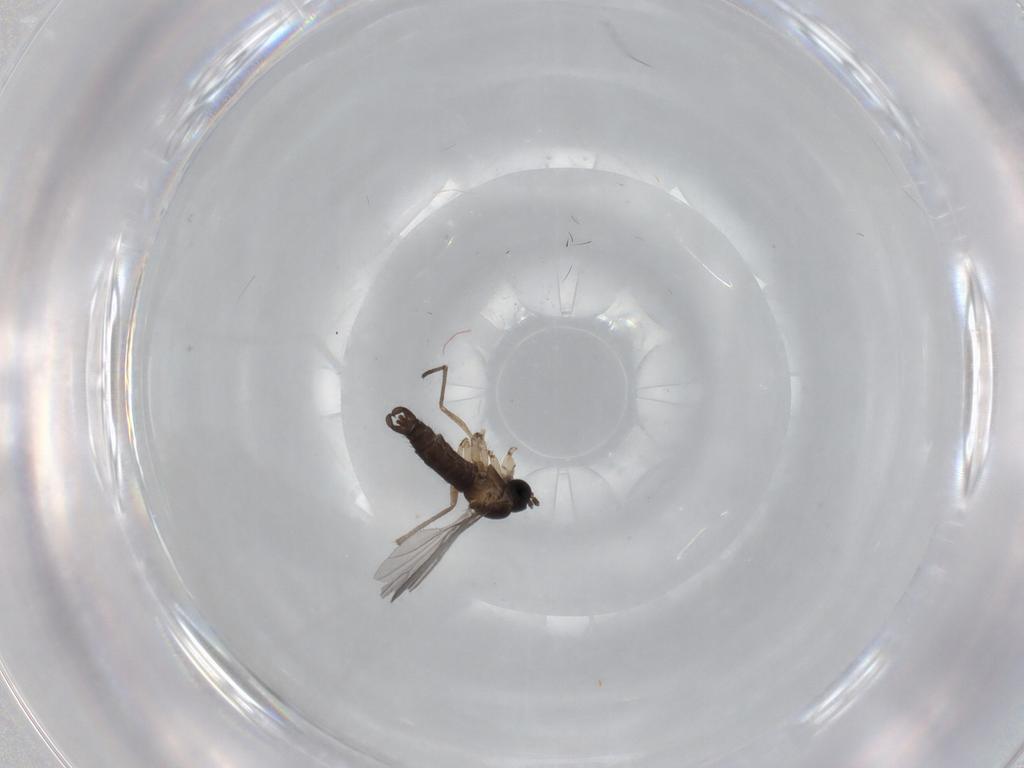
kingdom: Animalia
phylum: Arthropoda
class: Insecta
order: Diptera
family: Sciaridae
